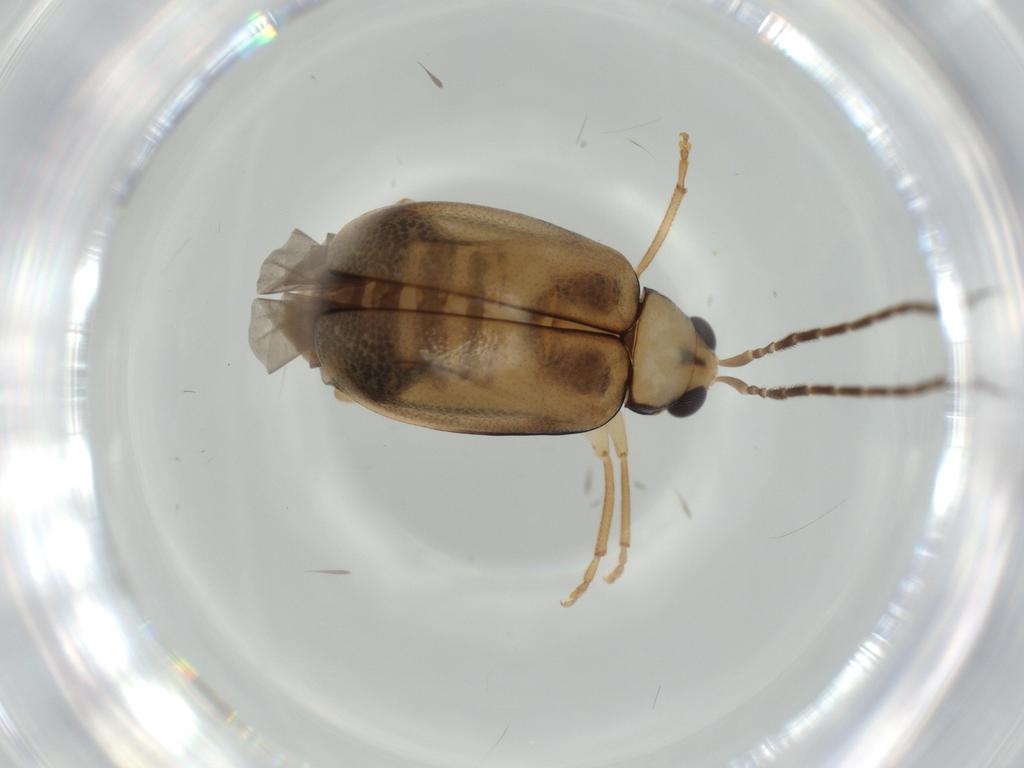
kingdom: Animalia
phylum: Arthropoda
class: Insecta
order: Coleoptera
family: Chrysomelidae
